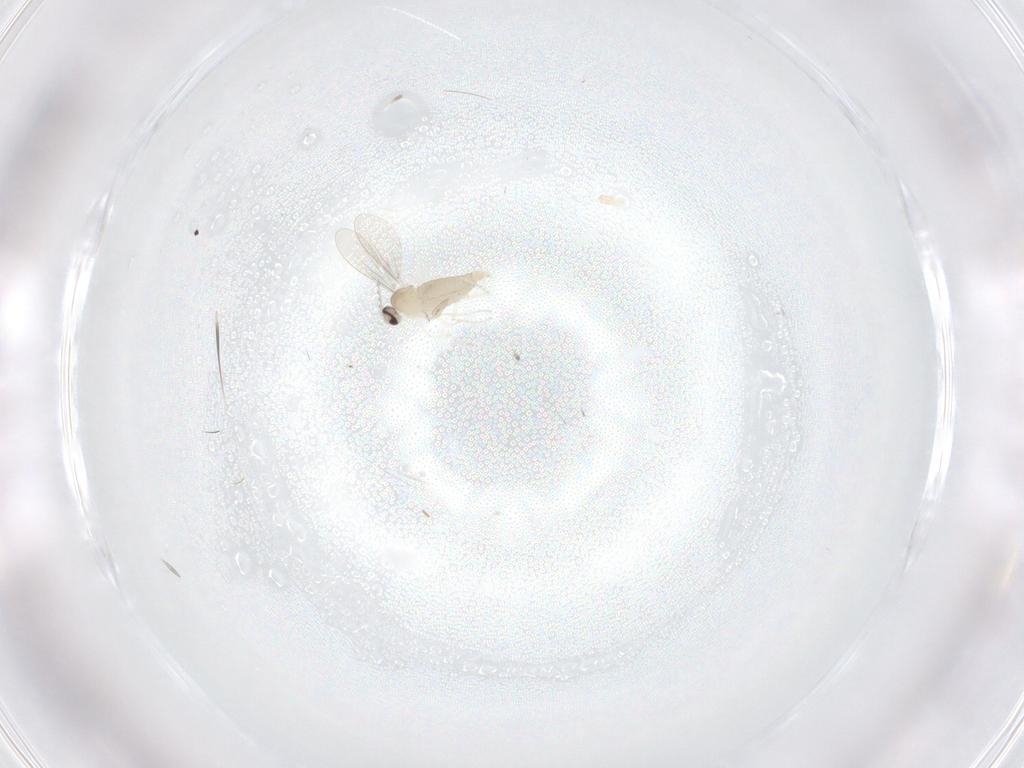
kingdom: Animalia
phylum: Arthropoda
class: Insecta
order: Diptera
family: Cecidomyiidae
